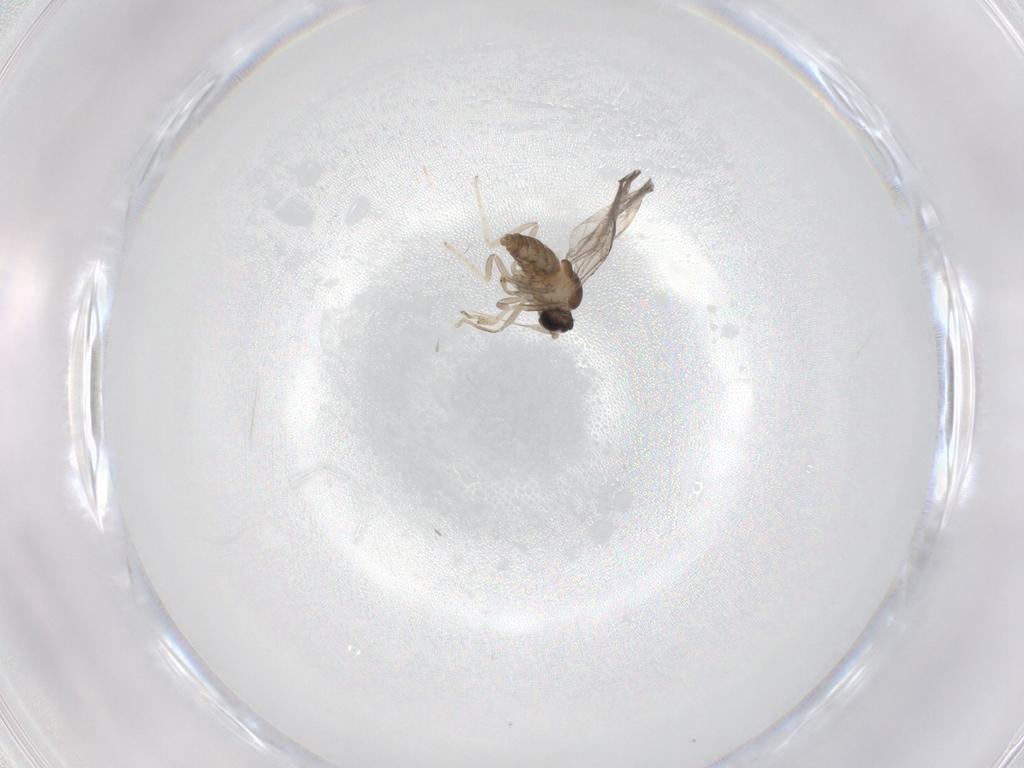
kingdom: Animalia
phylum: Arthropoda
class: Insecta
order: Diptera
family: Cecidomyiidae
